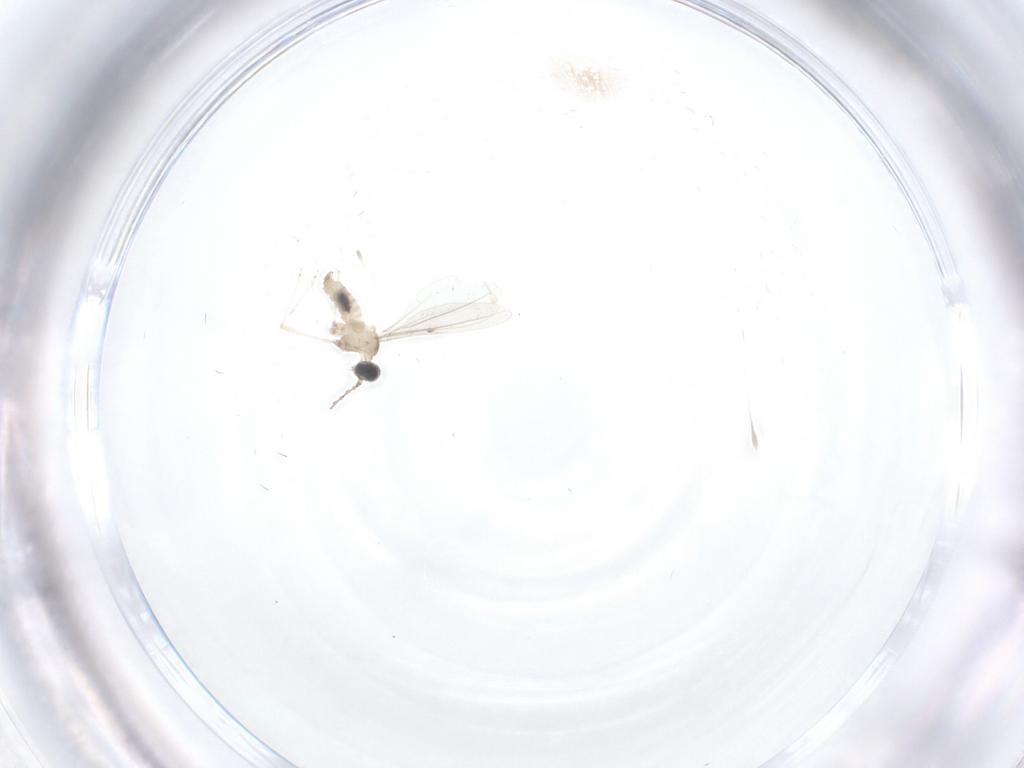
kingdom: Animalia
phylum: Arthropoda
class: Insecta
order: Diptera
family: Cecidomyiidae
